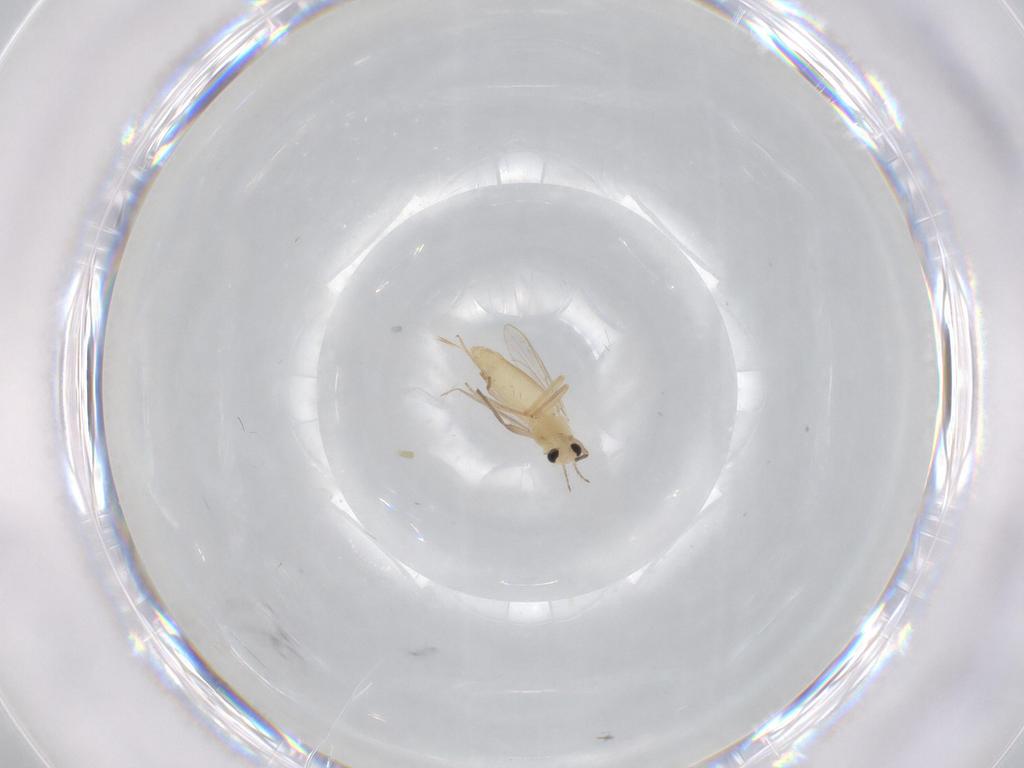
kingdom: Animalia
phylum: Arthropoda
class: Insecta
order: Diptera
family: Chironomidae
